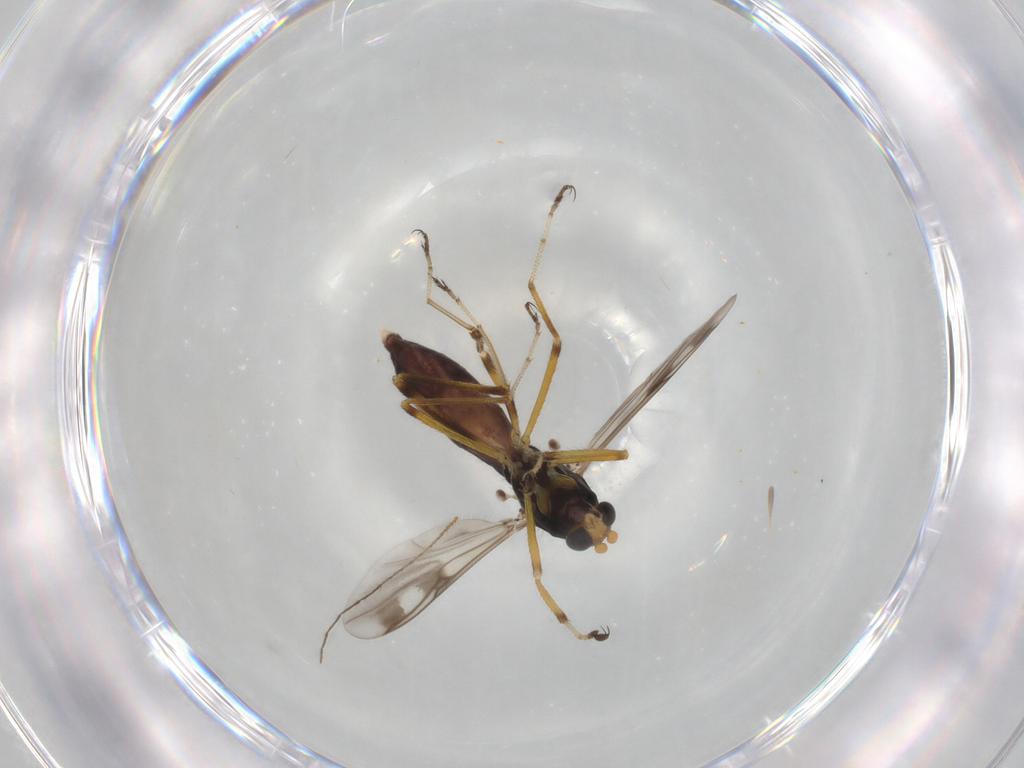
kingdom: Animalia
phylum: Arthropoda
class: Insecta
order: Diptera
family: Ceratopogonidae
